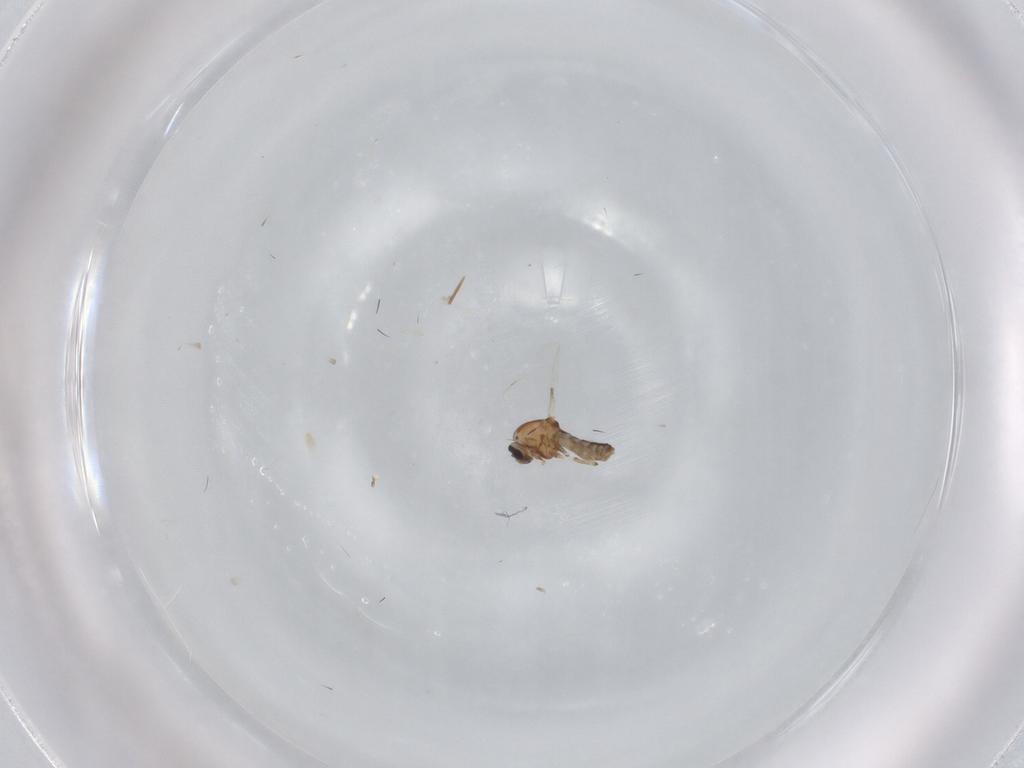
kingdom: Animalia
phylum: Arthropoda
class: Insecta
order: Diptera
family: Ceratopogonidae
